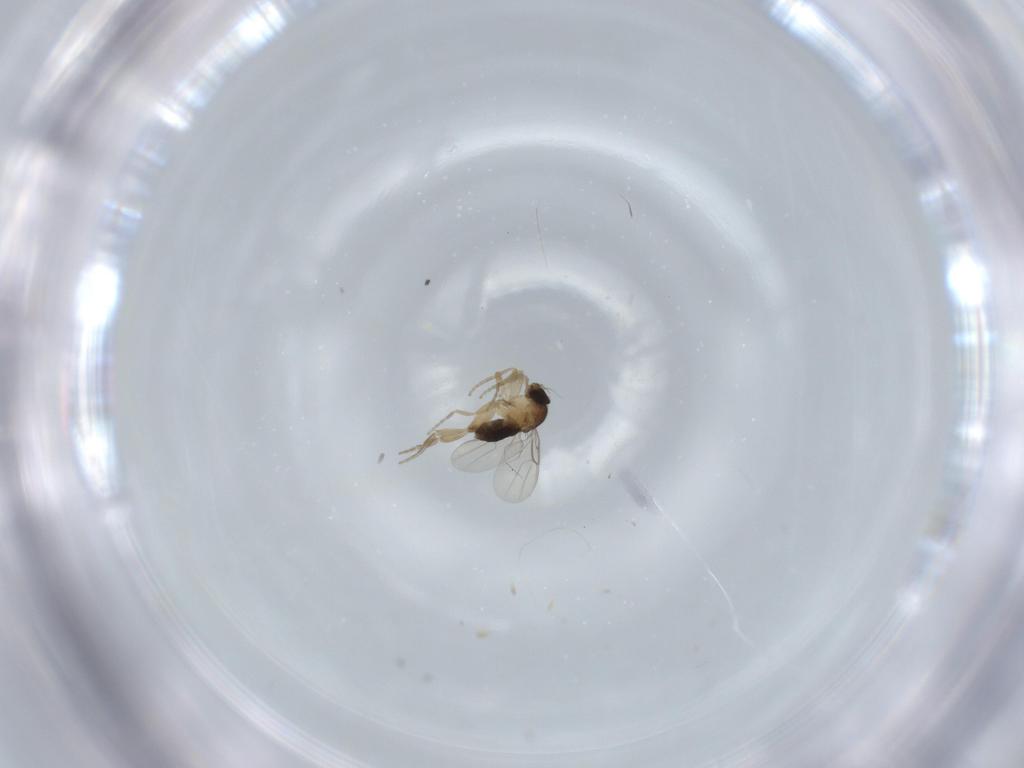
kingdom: Animalia
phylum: Arthropoda
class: Insecta
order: Diptera
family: Phoridae
